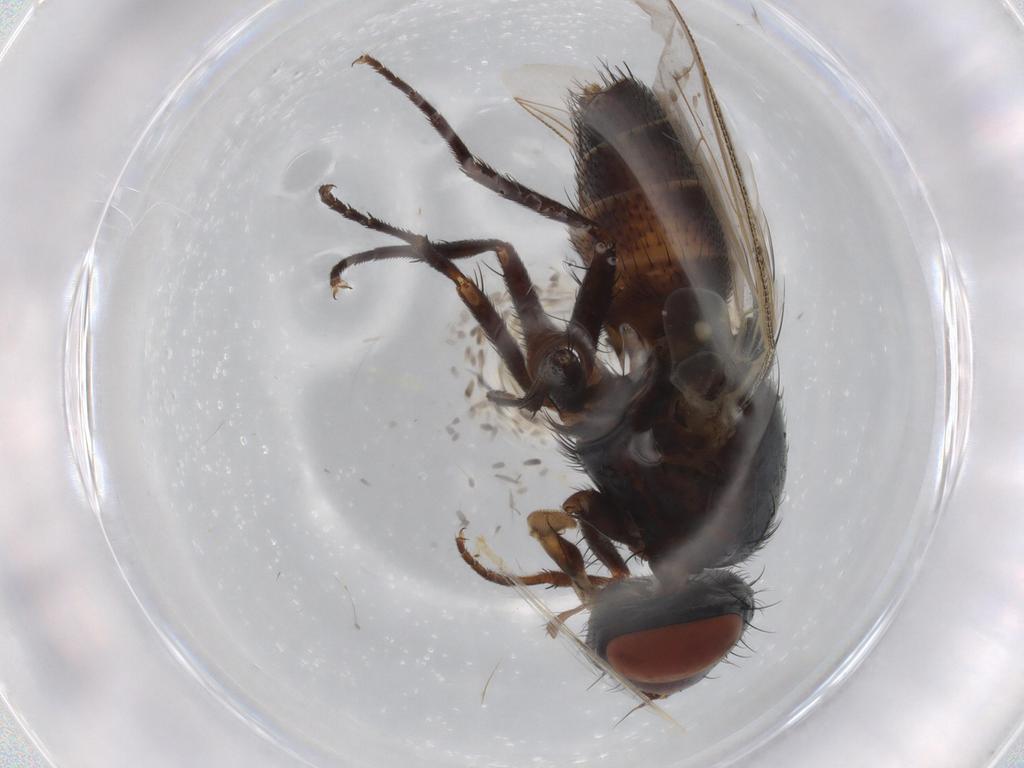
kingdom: Animalia
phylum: Arthropoda
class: Insecta
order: Diptera
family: Sarcophagidae
